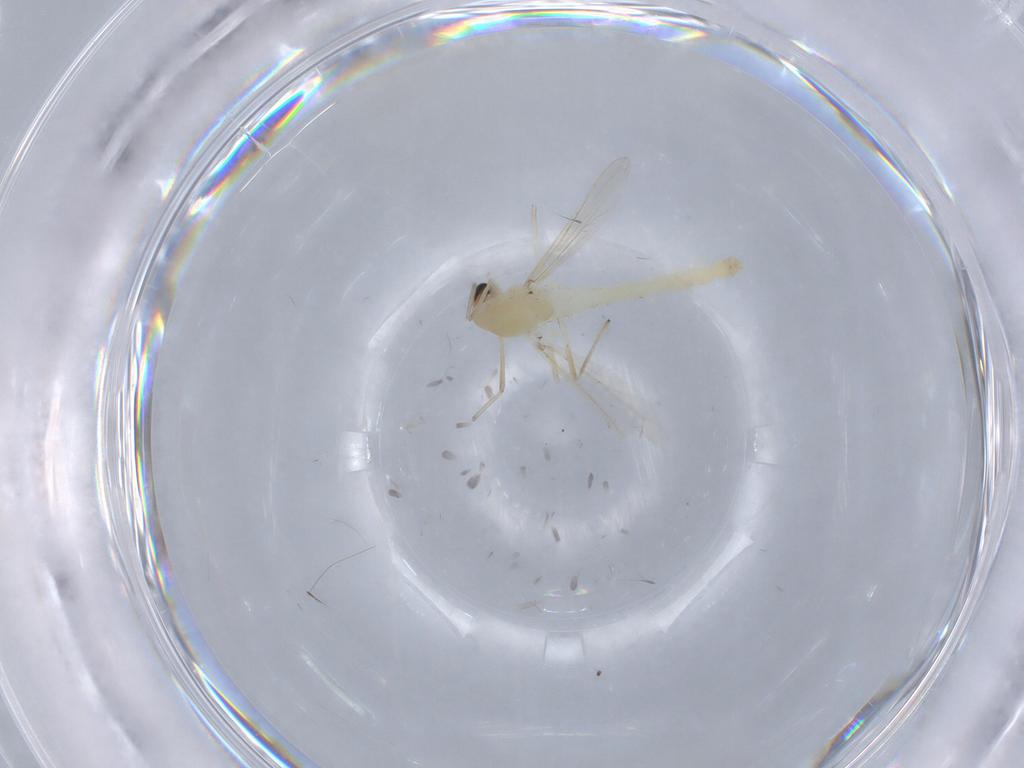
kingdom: Animalia
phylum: Arthropoda
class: Insecta
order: Diptera
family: Chironomidae
